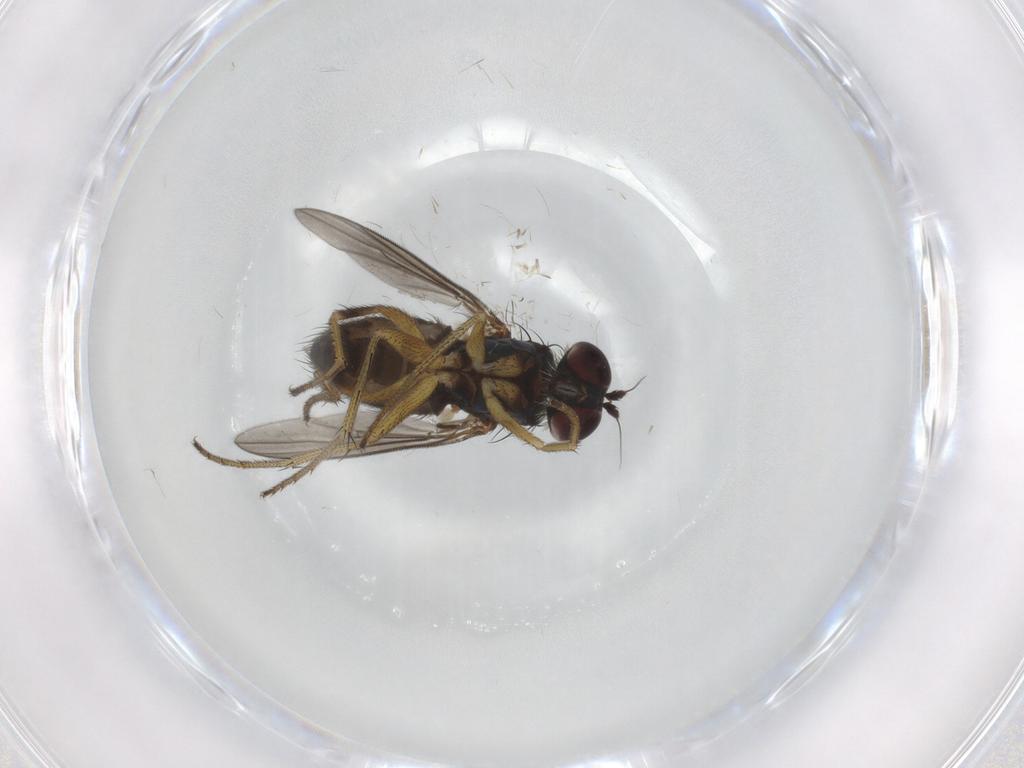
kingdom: Animalia
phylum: Arthropoda
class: Insecta
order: Diptera
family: Dolichopodidae
